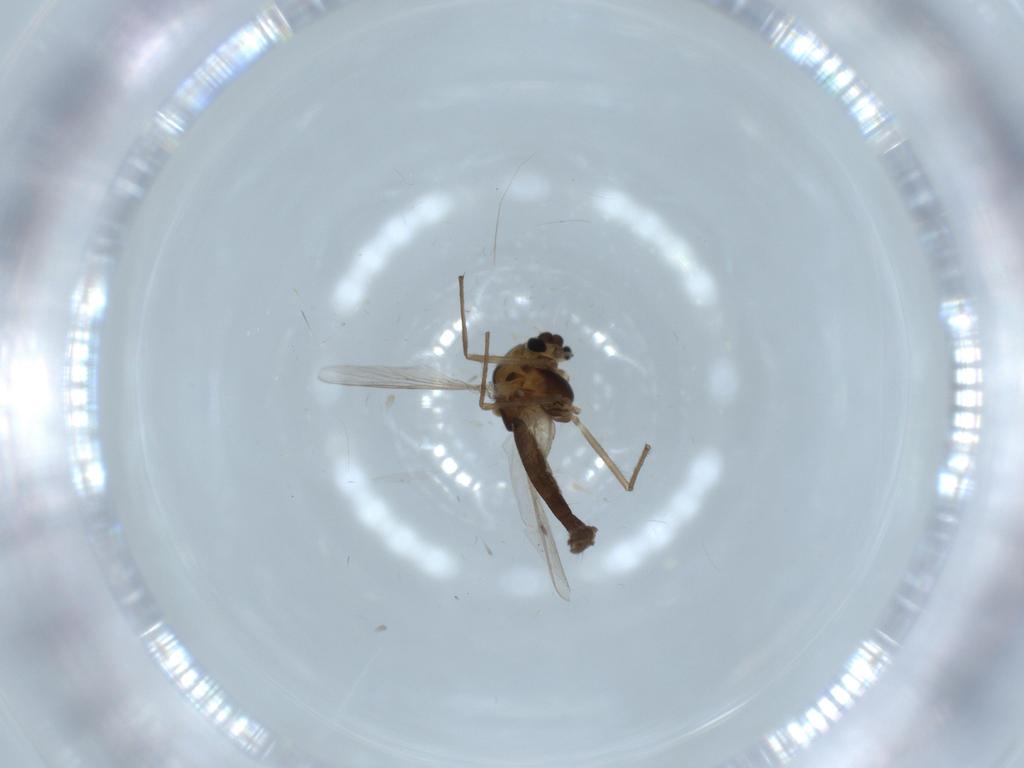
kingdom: Animalia
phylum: Arthropoda
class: Insecta
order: Diptera
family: Chironomidae
